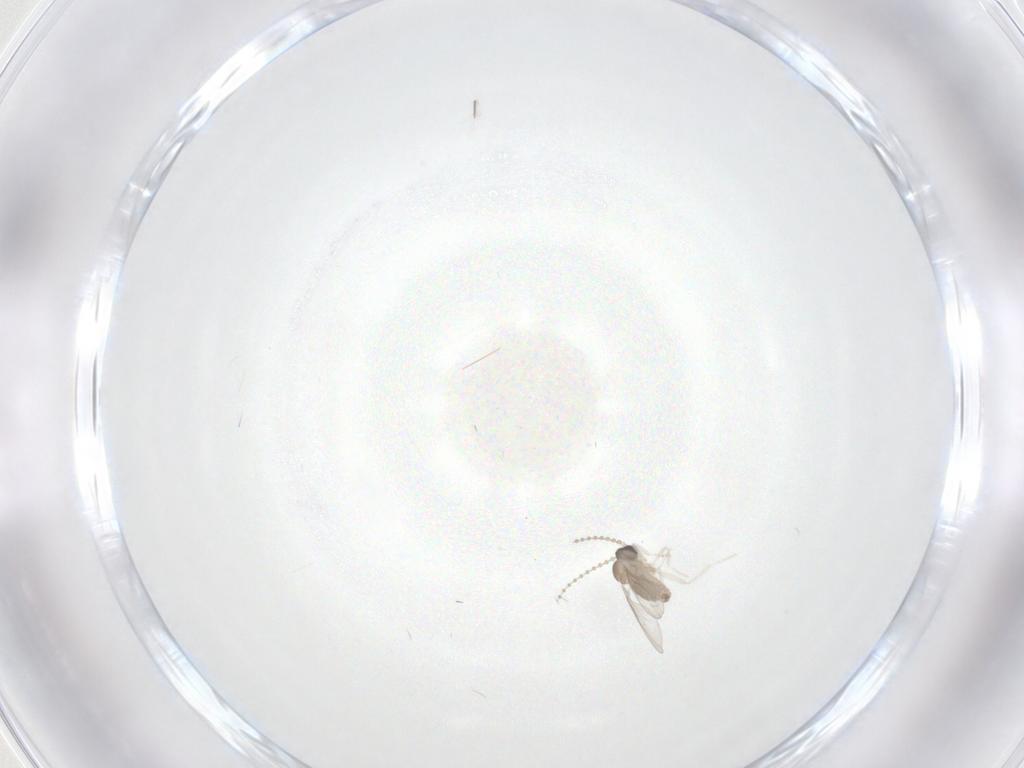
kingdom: Animalia
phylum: Arthropoda
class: Insecta
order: Diptera
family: Cecidomyiidae
